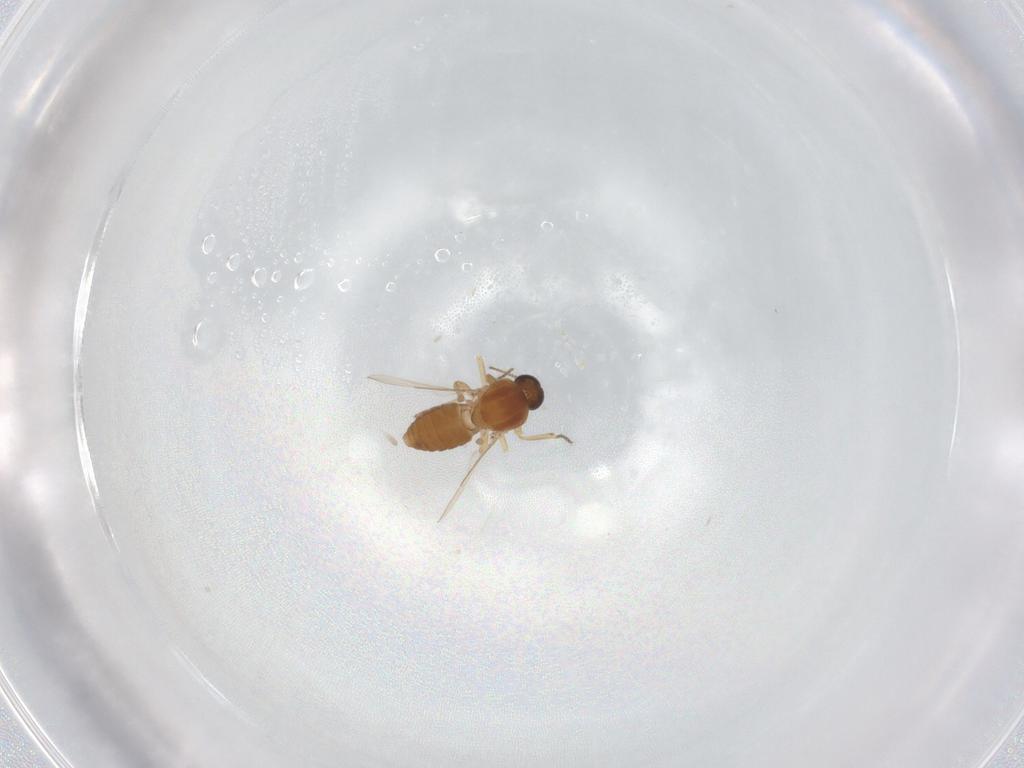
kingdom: Animalia
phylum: Arthropoda
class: Insecta
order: Diptera
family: Ceratopogonidae
